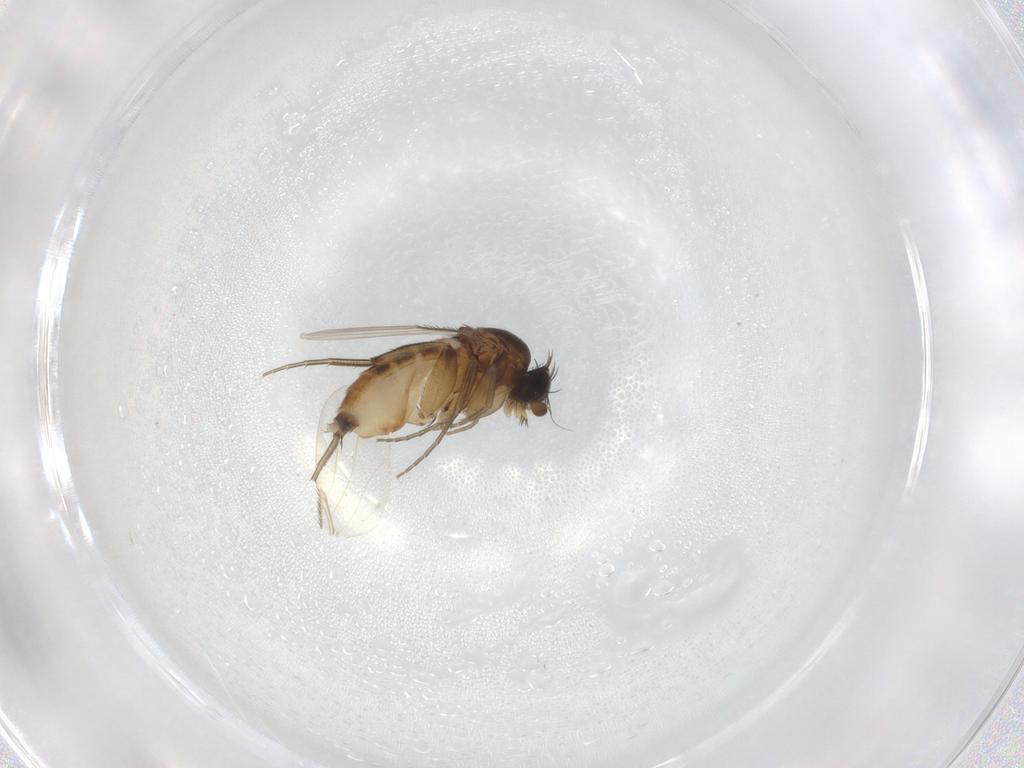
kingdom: Animalia
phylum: Arthropoda
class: Insecta
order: Diptera
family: Phoridae
